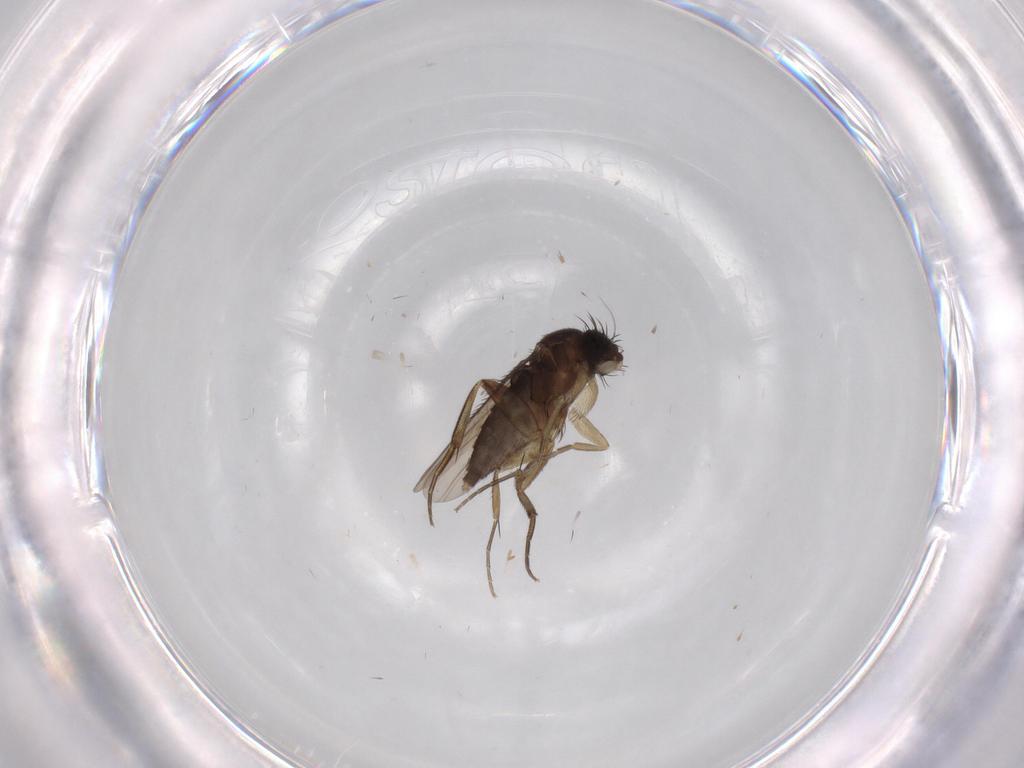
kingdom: Animalia
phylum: Arthropoda
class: Insecta
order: Diptera
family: Phoridae
